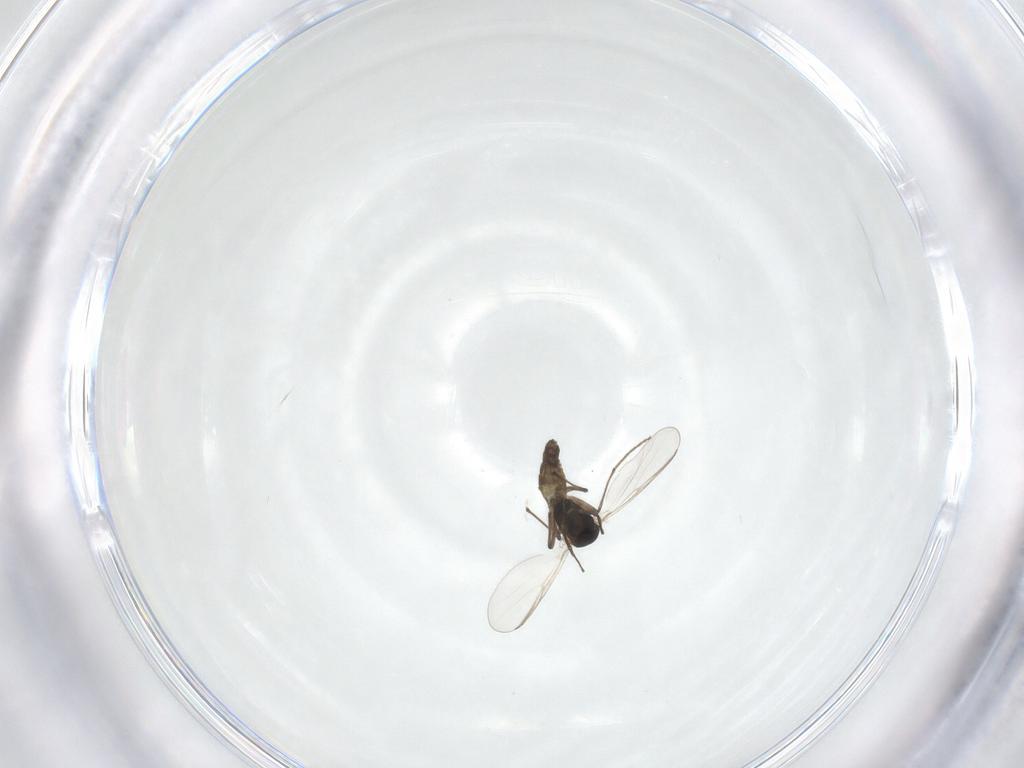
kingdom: Animalia
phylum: Arthropoda
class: Insecta
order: Diptera
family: Chironomidae
